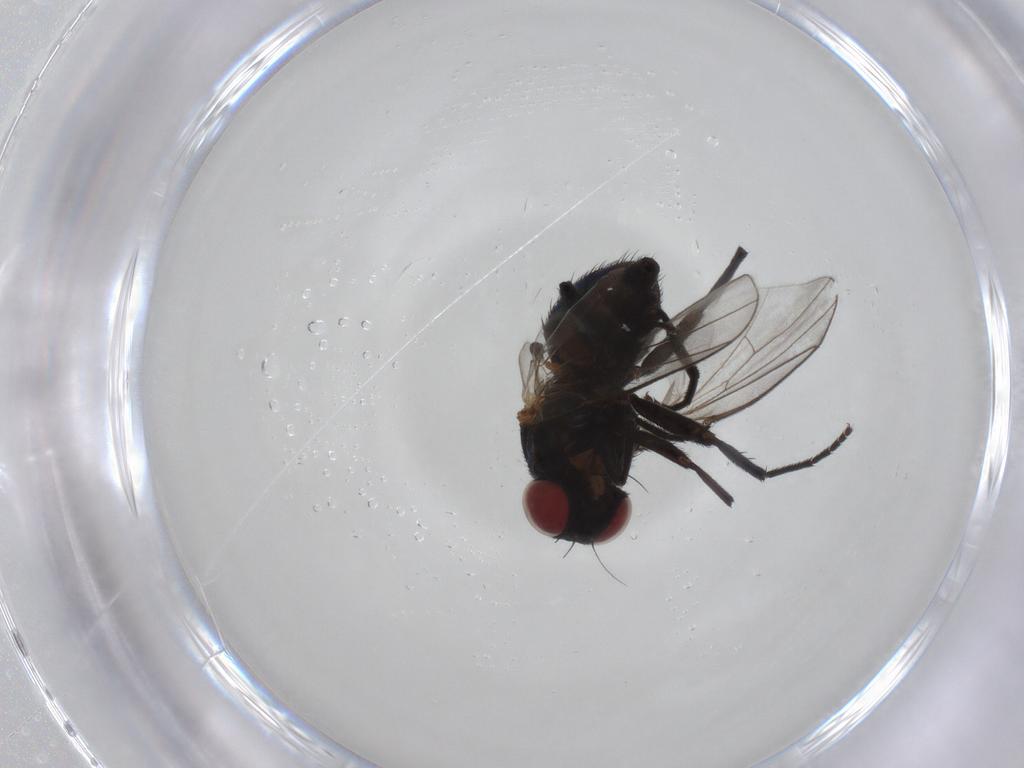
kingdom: Animalia
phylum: Arthropoda
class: Insecta
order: Diptera
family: Agromyzidae
